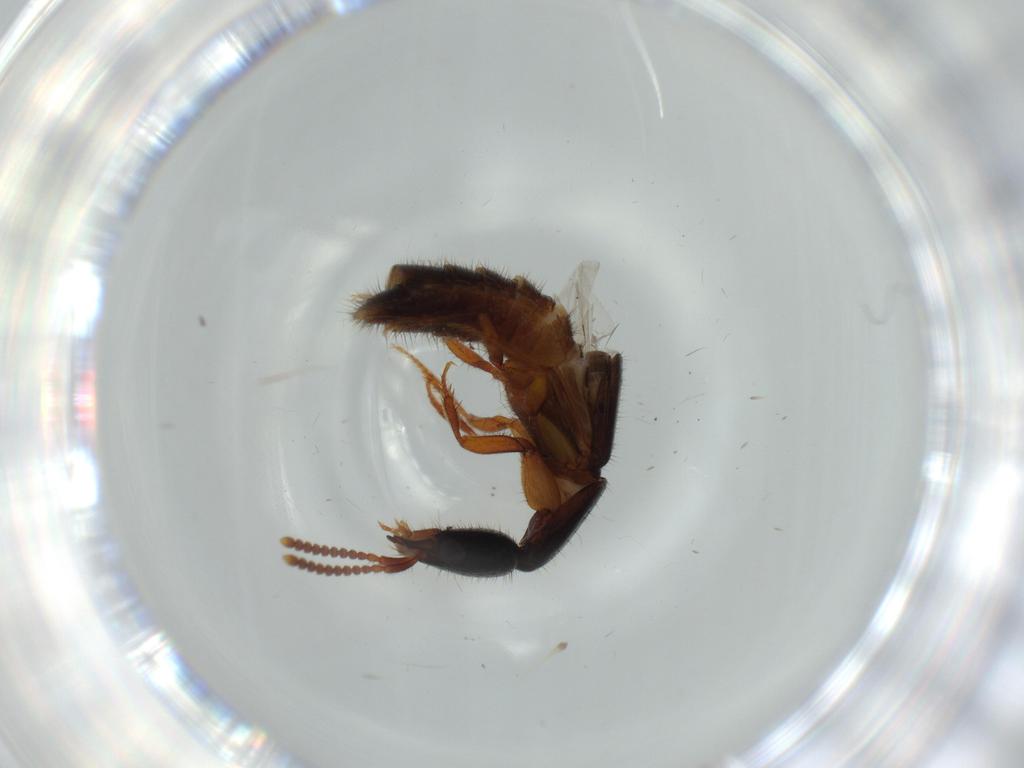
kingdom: Animalia
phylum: Arthropoda
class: Insecta
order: Coleoptera
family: Staphylinidae
